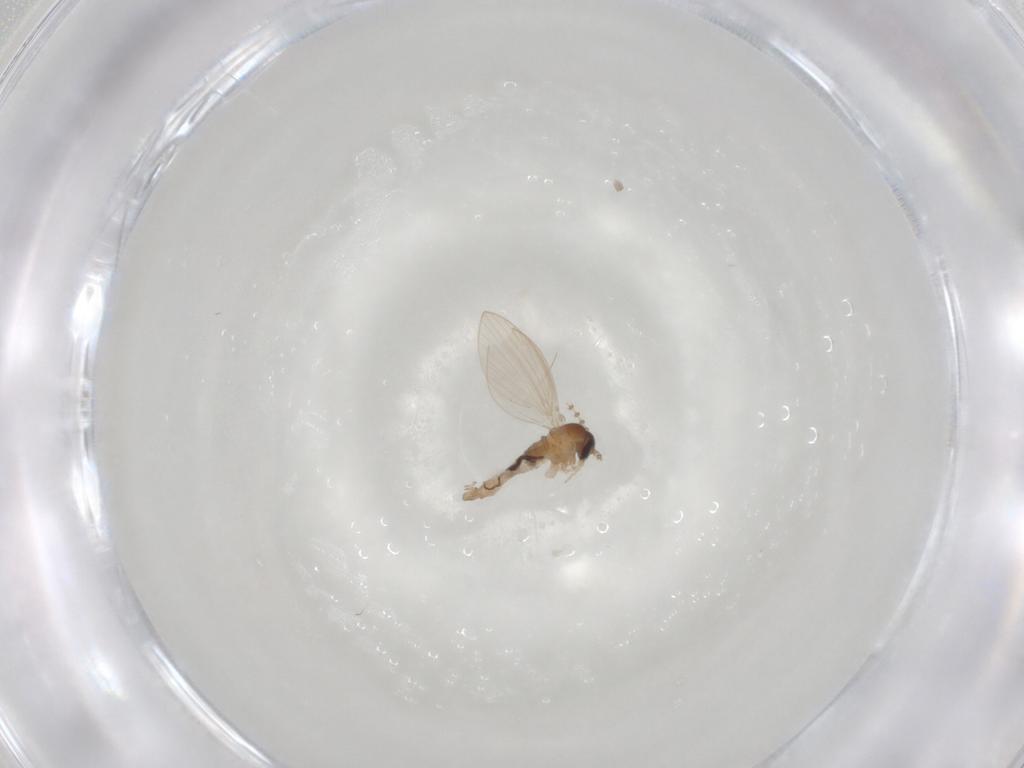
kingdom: Animalia
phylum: Arthropoda
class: Insecta
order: Diptera
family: Psychodidae
